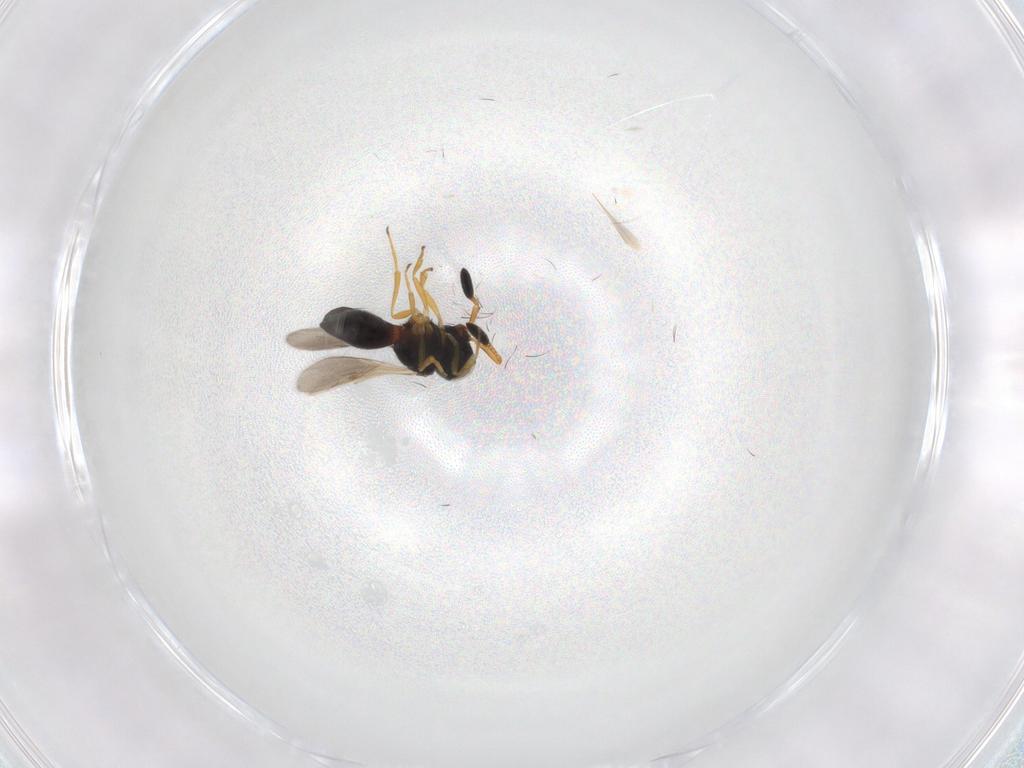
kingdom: Animalia
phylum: Arthropoda
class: Insecta
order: Hymenoptera
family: Scelionidae
